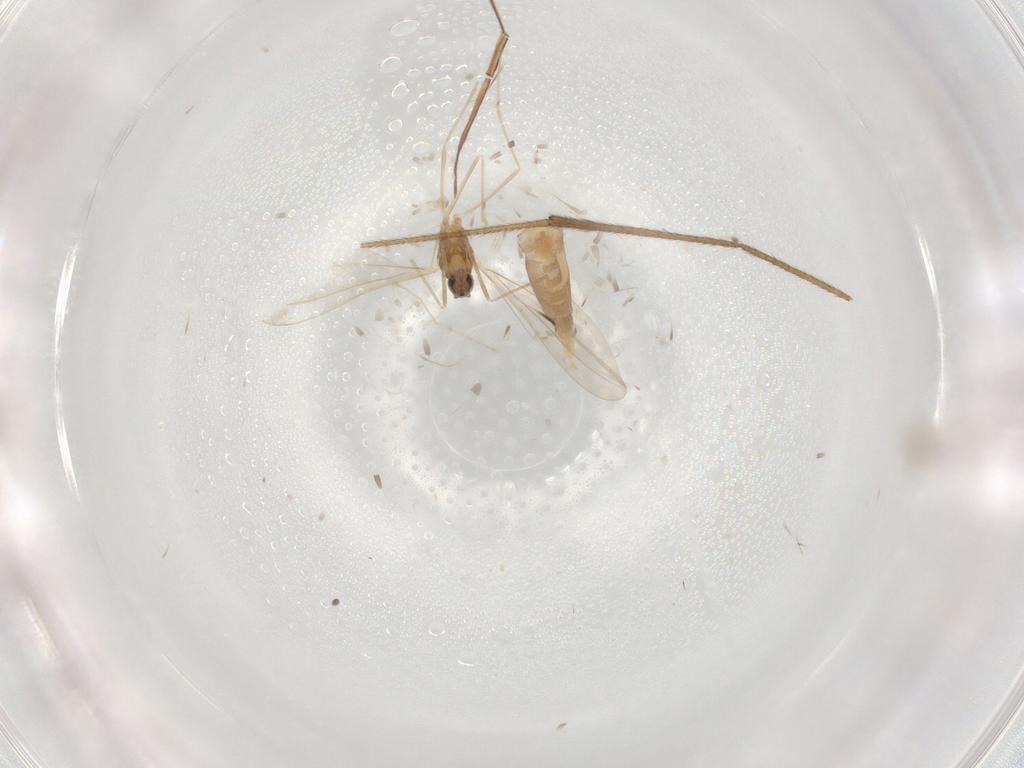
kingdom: Animalia
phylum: Arthropoda
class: Insecta
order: Diptera
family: Cecidomyiidae
